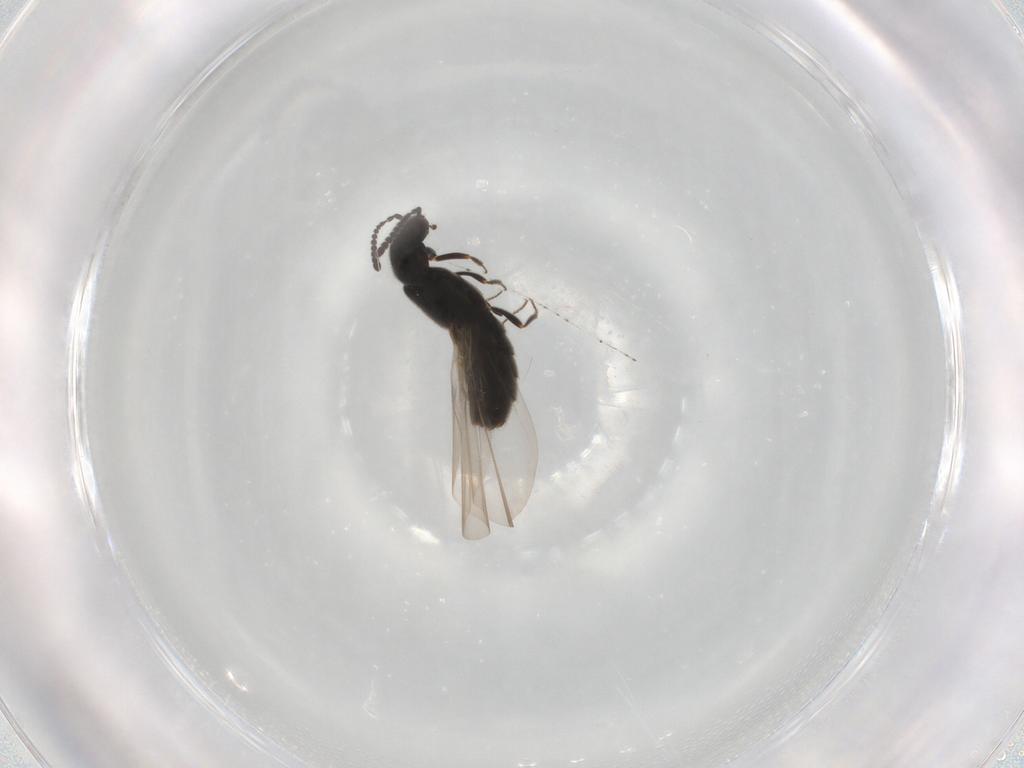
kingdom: Animalia
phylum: Arthropoda
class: Insecta
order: Coleoptera
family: Staphylinidae
